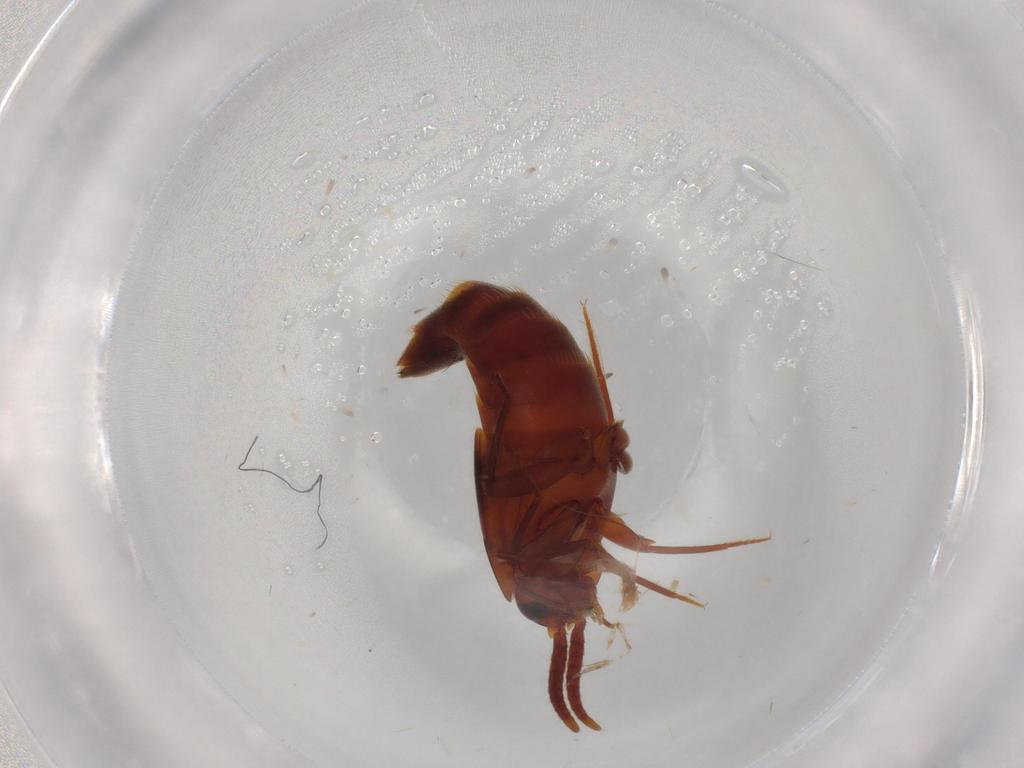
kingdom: Animalia
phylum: Arthropoda
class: Insecta
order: Coleoptera
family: Staphylinidae
